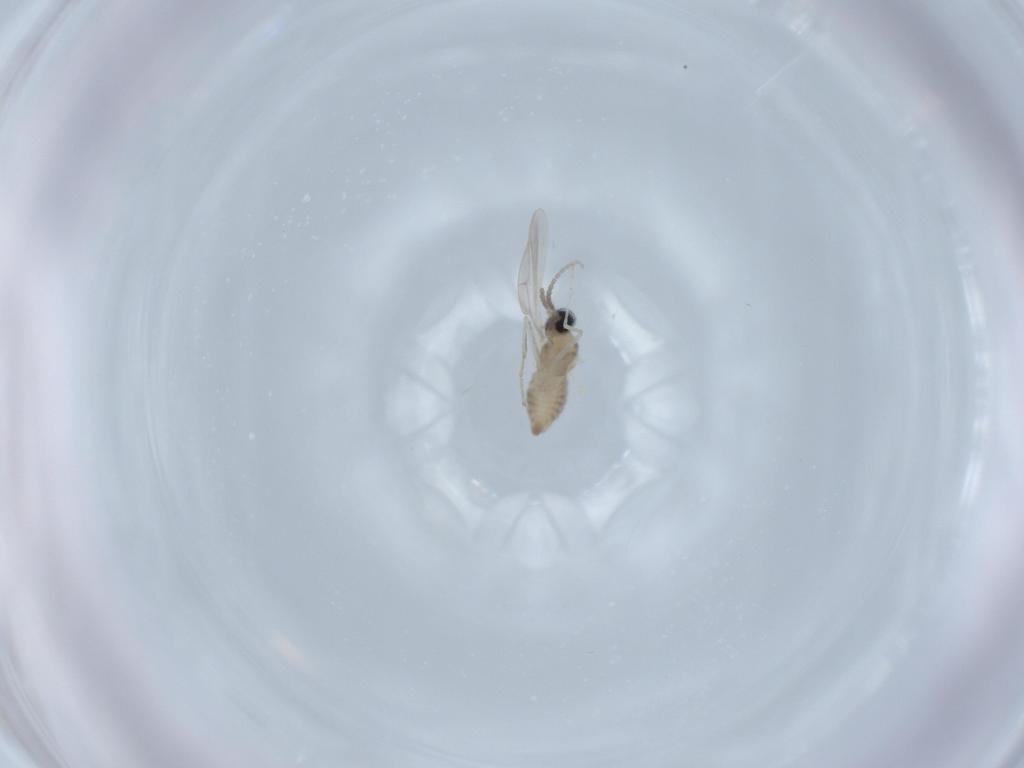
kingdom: Animalia
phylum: Arthropoda
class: Insecta
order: Diptera
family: Cecidomyiidae
